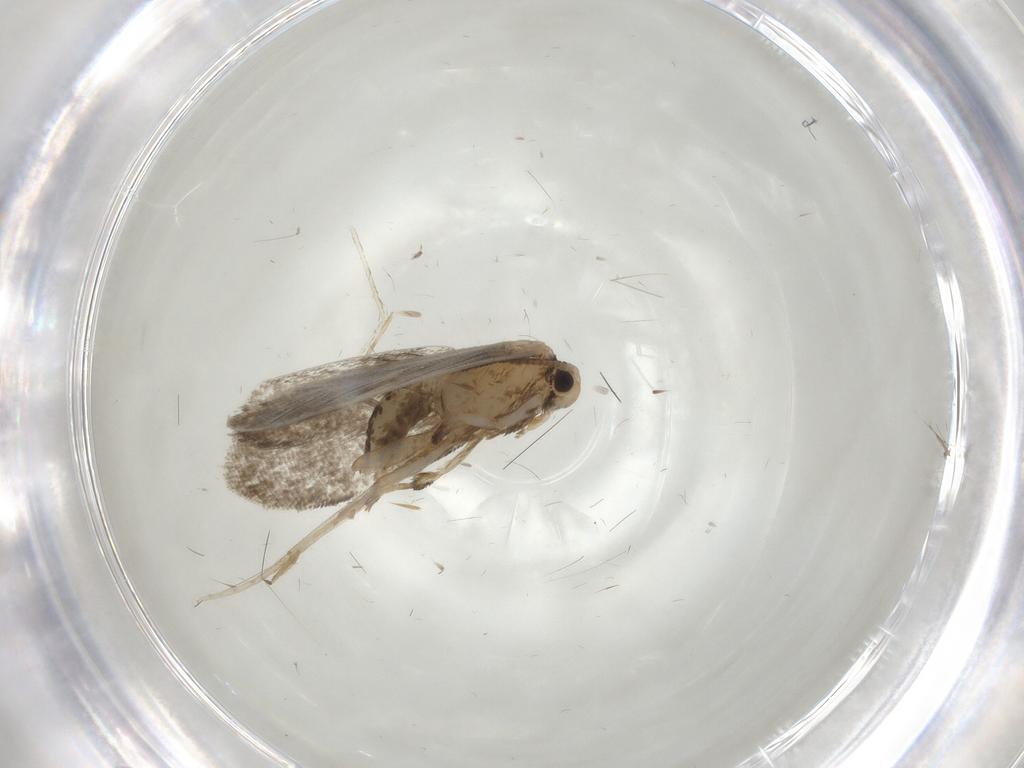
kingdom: Animalia
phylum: Arthropoda
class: Insecta
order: Lepidoptera
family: Psychidae
